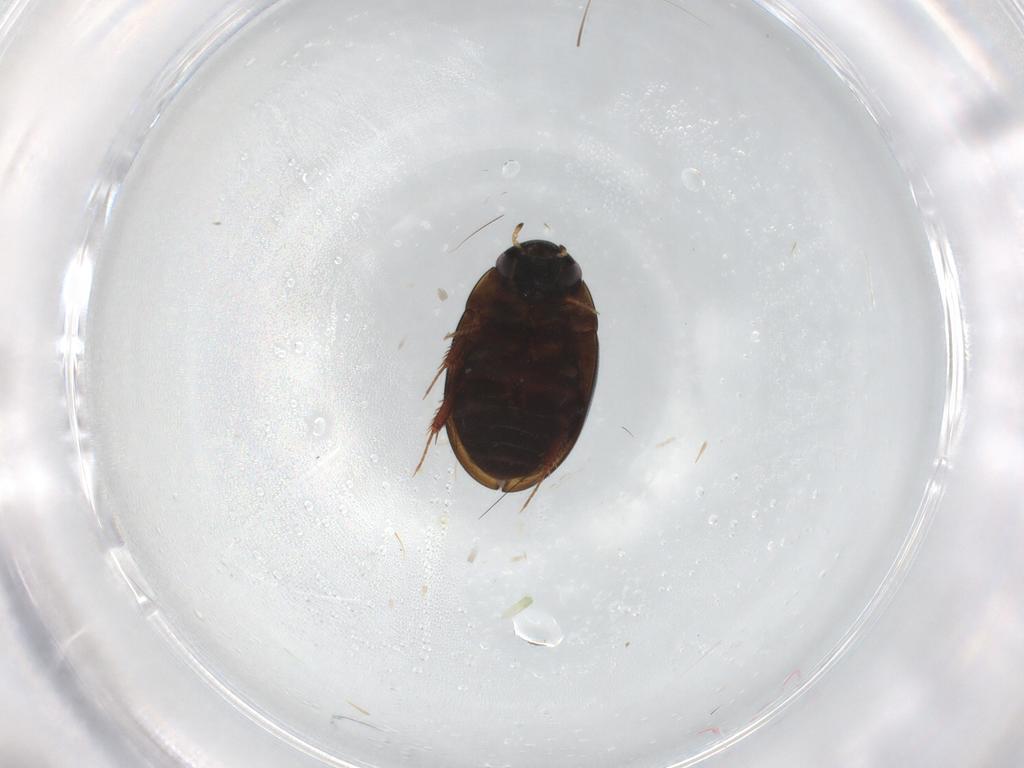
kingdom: Animalia
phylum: Arthropoda
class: Insecta
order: Coleoptera
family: Hydrophilidae
